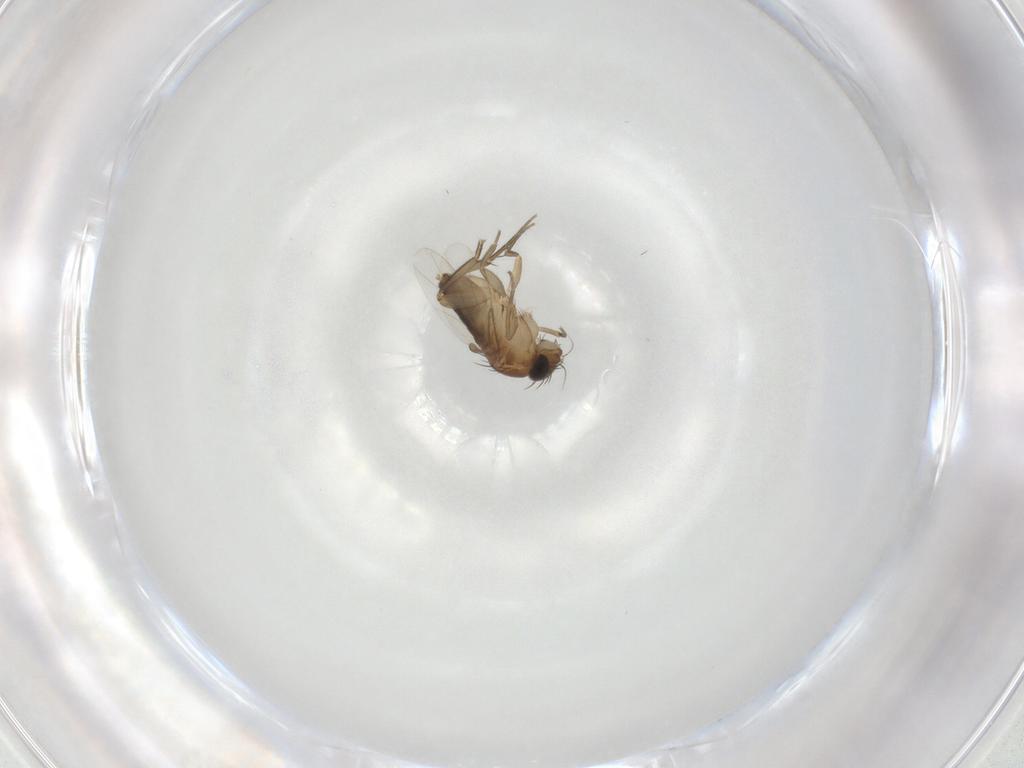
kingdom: Animalia
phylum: Arthropoda
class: Insecta
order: Diptera
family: Phoridae
